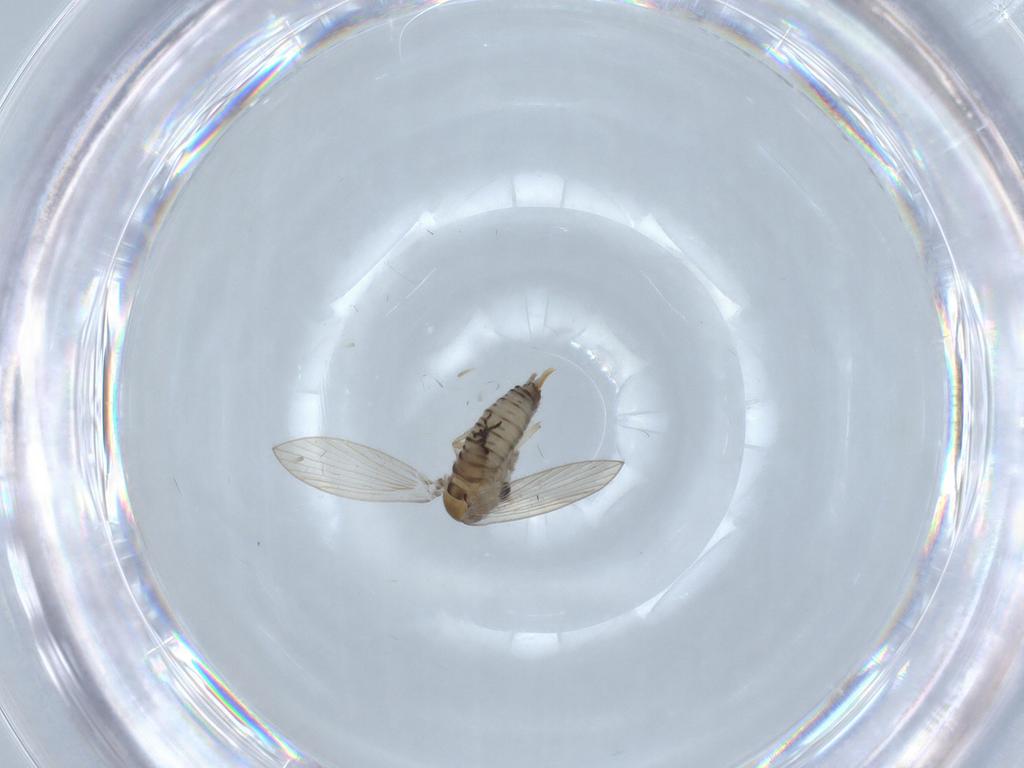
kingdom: Animalia
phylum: Arthropoda
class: Insecta
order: Diptera
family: Psychodidae
